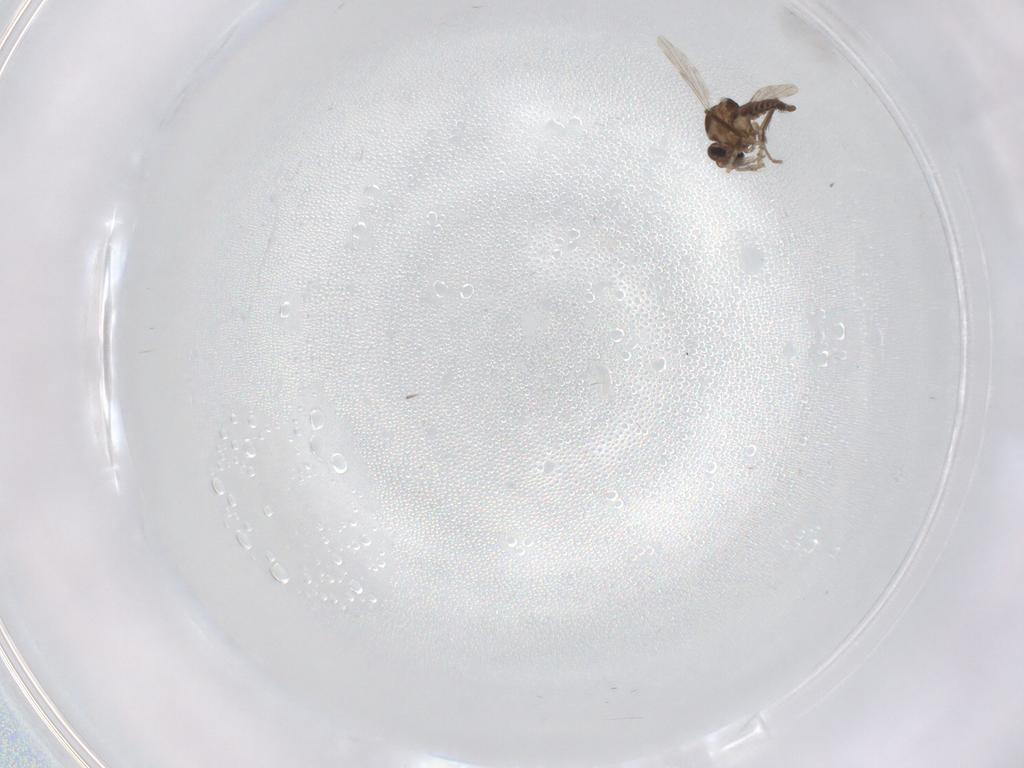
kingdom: Animalia
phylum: Arthropoda
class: Insecta
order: Diptera
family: Ceratopogonidae
